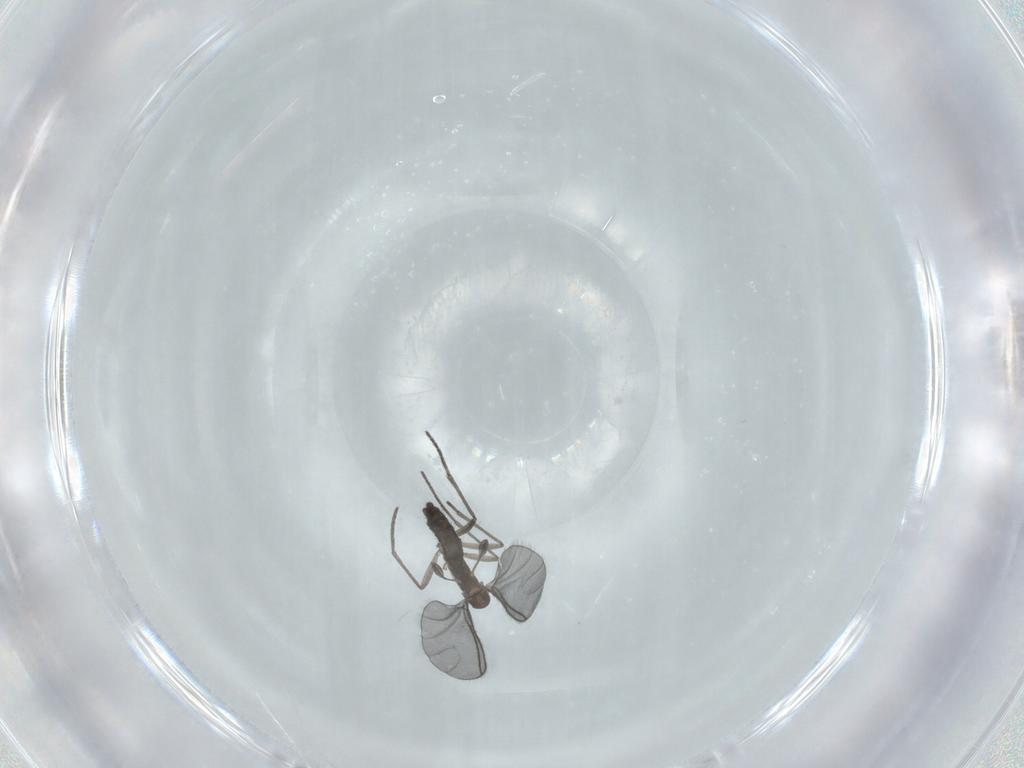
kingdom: Animalia
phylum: Arthropoda
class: Insecta
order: Diptera
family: Sciaridae
